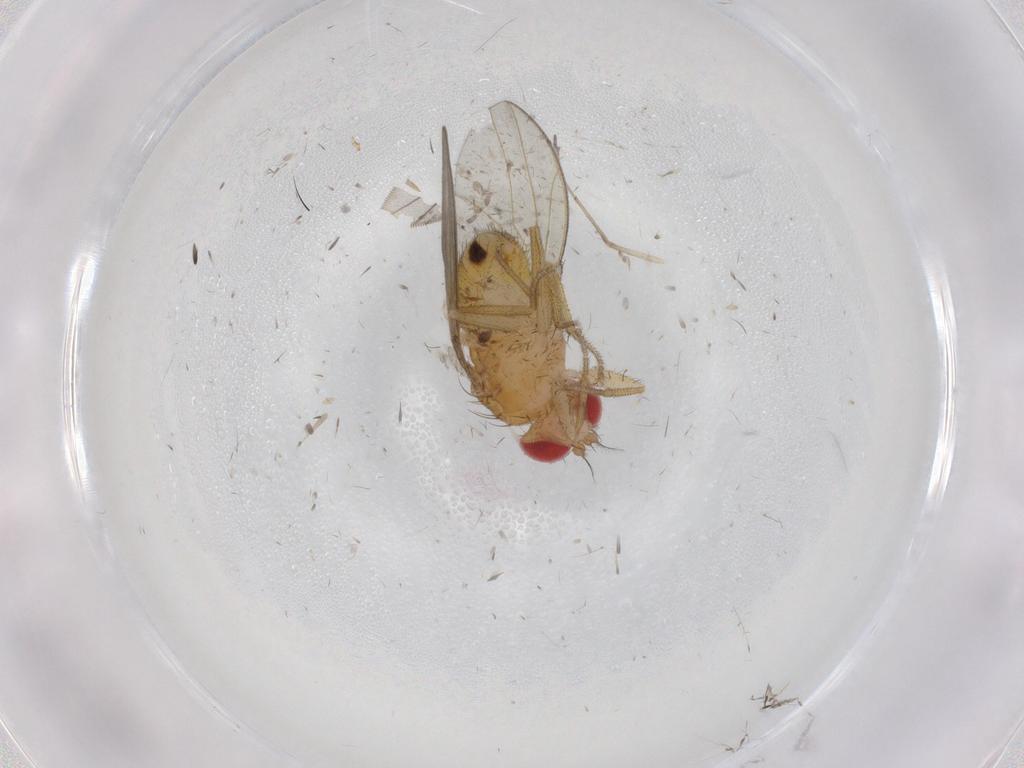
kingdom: Animalia
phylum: Arthropoda
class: Insecta
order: Diptera
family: Drosophilidae
